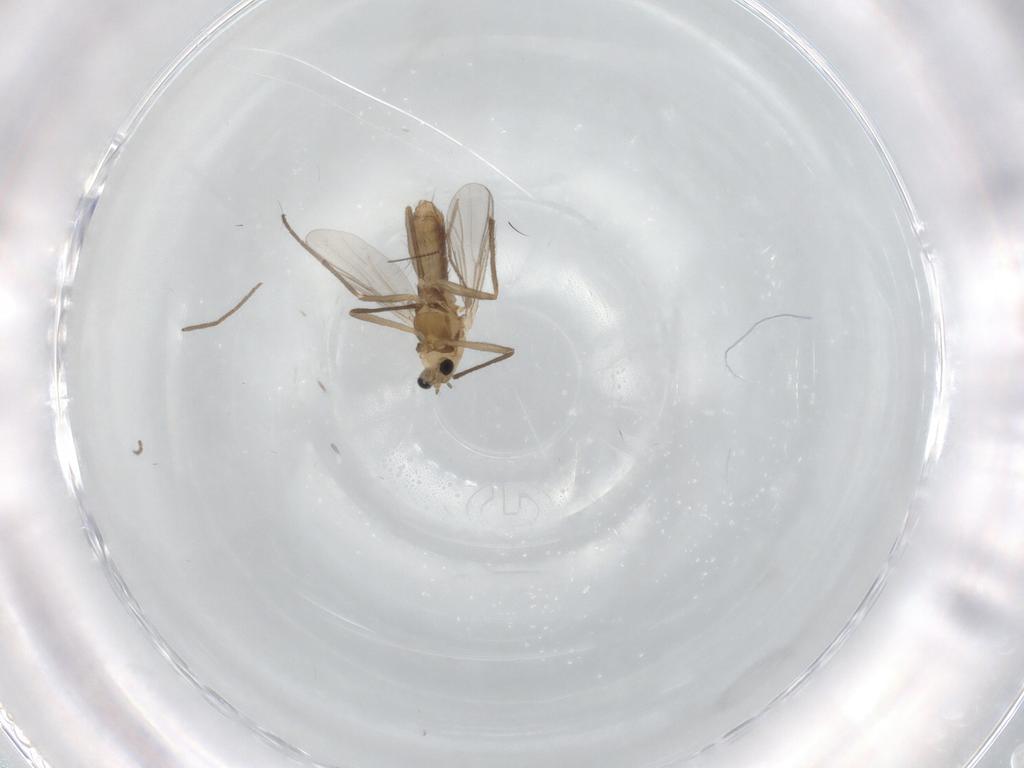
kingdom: Animalia
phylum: Arthropoda
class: Insecta
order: Diptera
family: Chironomidae
